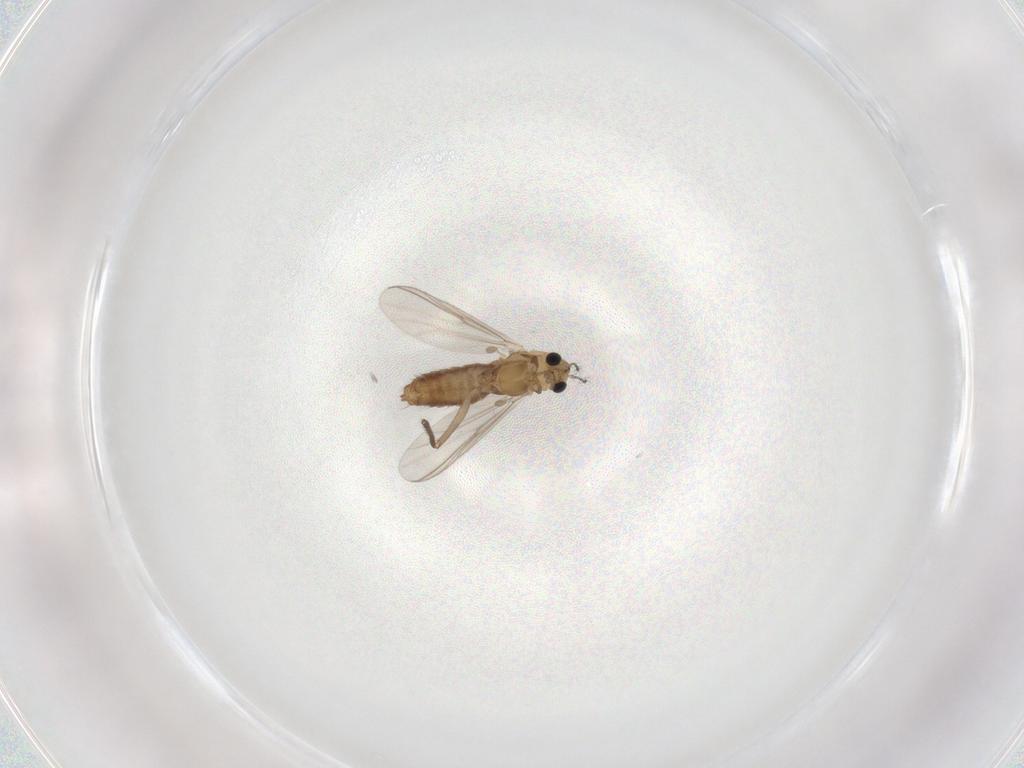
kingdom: Animalia
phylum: Arthropoda
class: Insecta
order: Diptera
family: Chironomidae
